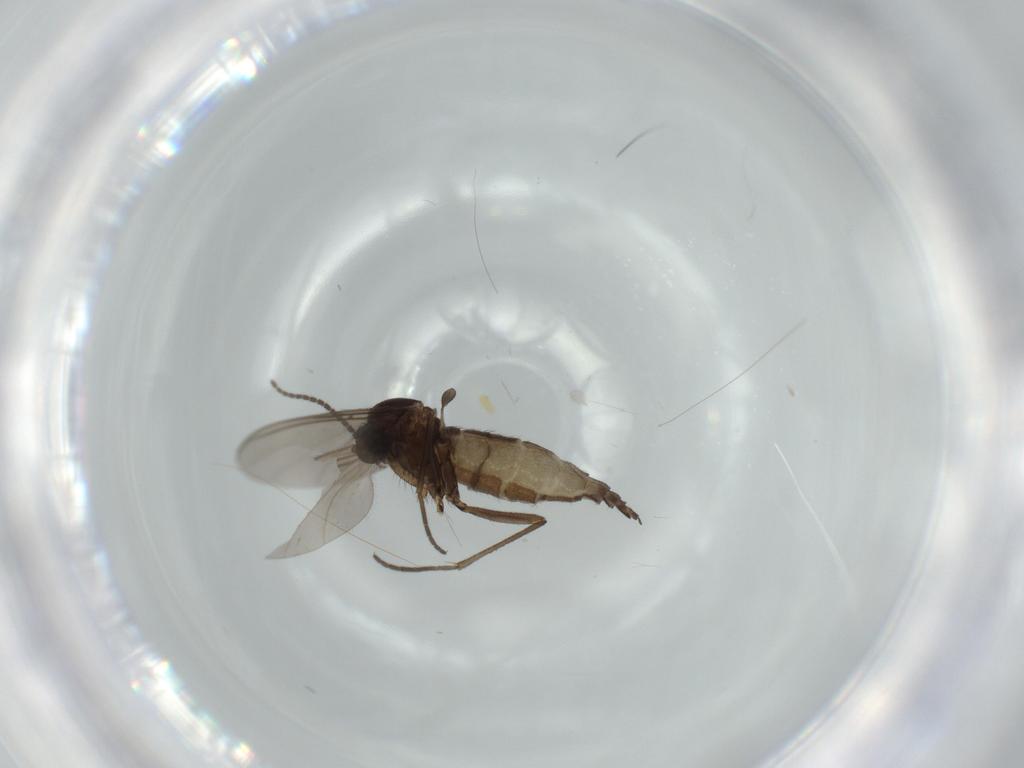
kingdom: Animalia
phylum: Arthropoda
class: Insecta
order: Diptera
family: Sciaridae
